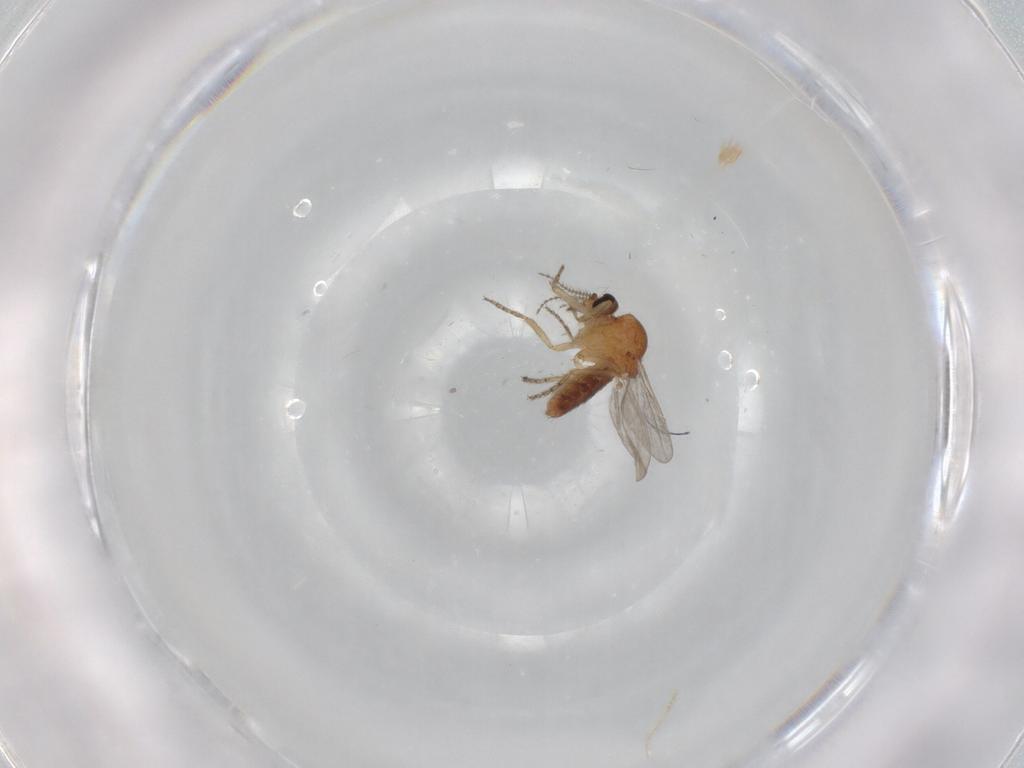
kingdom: Animalia
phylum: Arthropoda
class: Insecta
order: Diptera
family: Ceratopogonidae
